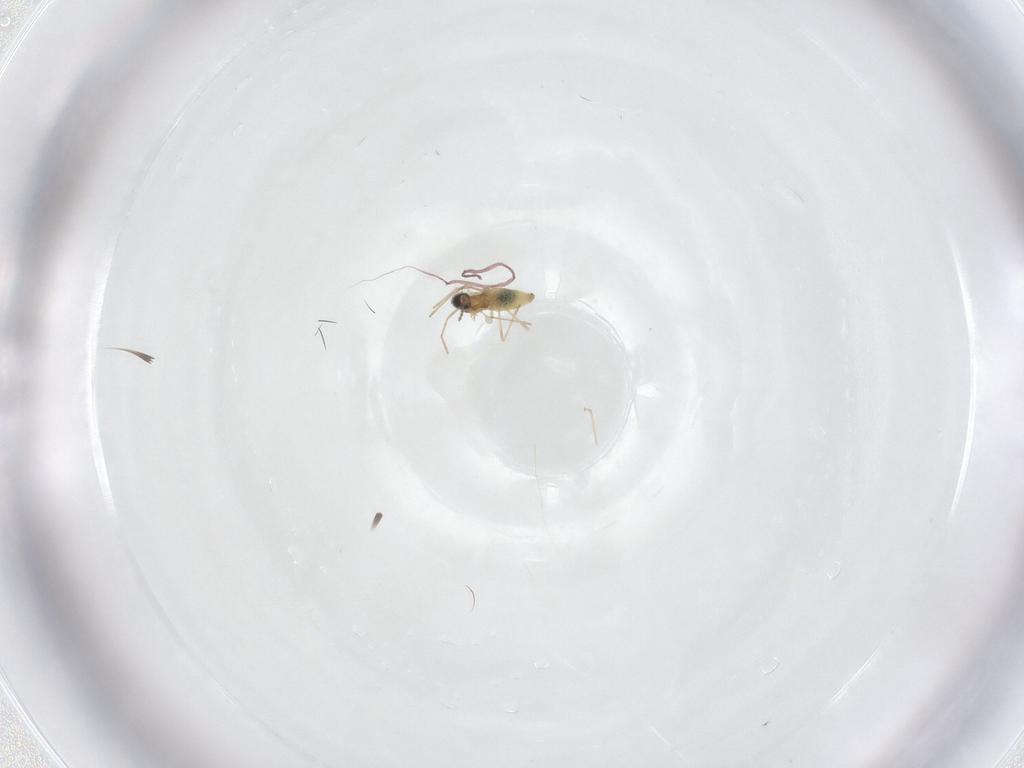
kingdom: Animalia
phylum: Arthropoda
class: Insecta
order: Diptera
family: Cecidomyiidae
